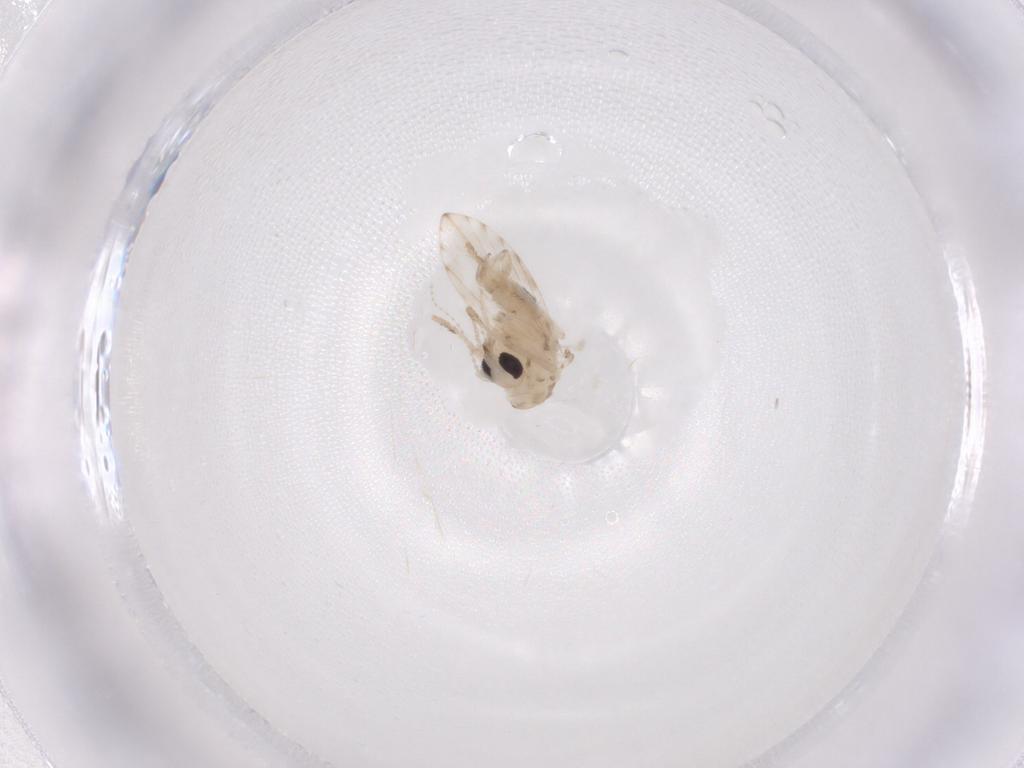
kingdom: Animalia
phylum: Arthropoda
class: Insecta
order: Diptera
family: Psychodidae
